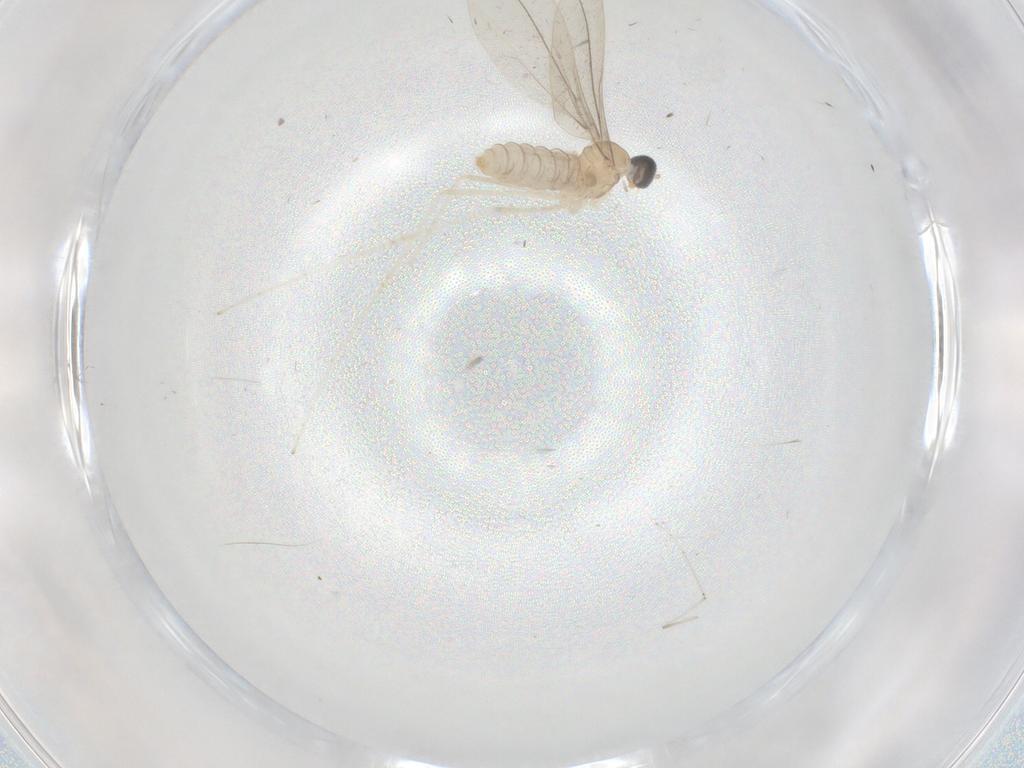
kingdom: Animalia
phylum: Arthropoda
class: Insecta
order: Diptera
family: Cecidomyiidae
